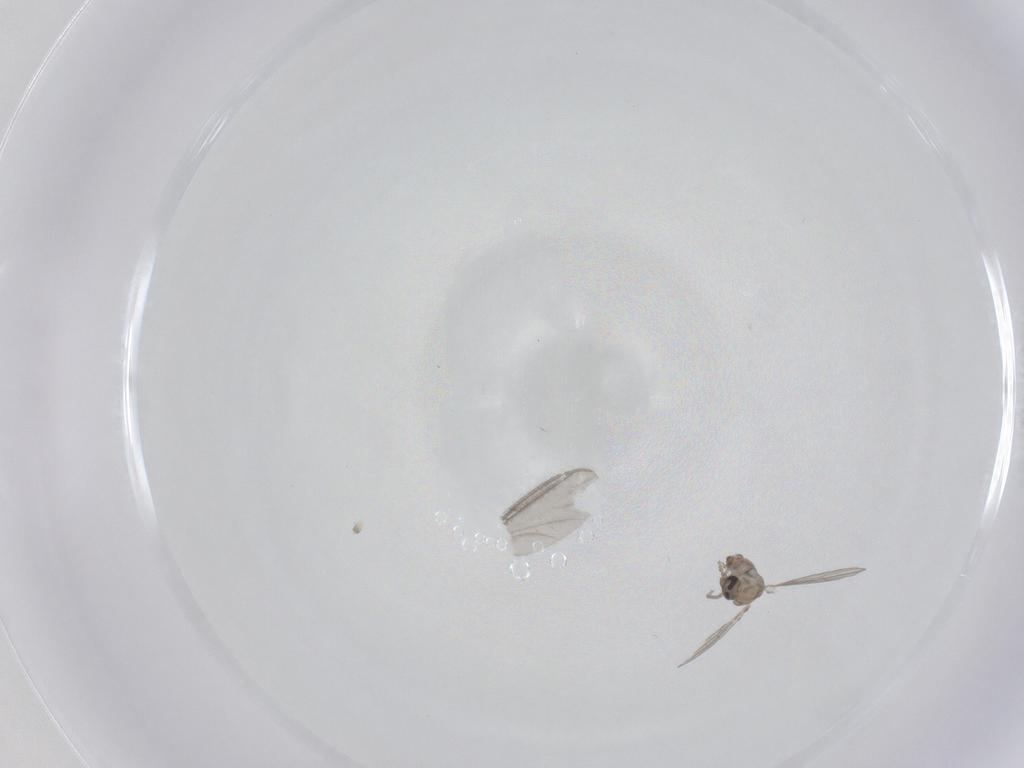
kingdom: Animalia
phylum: Arthropoda
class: Insecta
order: Diptera
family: Psychodidae
